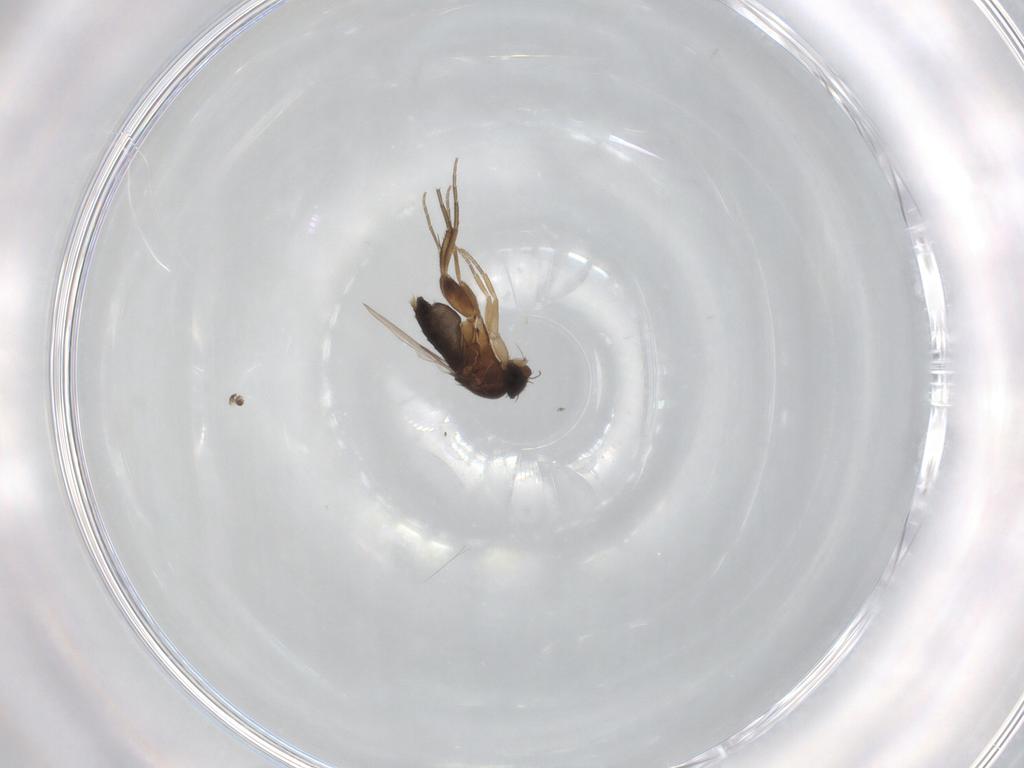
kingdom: Animalia
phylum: Arthropoda
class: Insecta
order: Diptera
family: Phoridae
